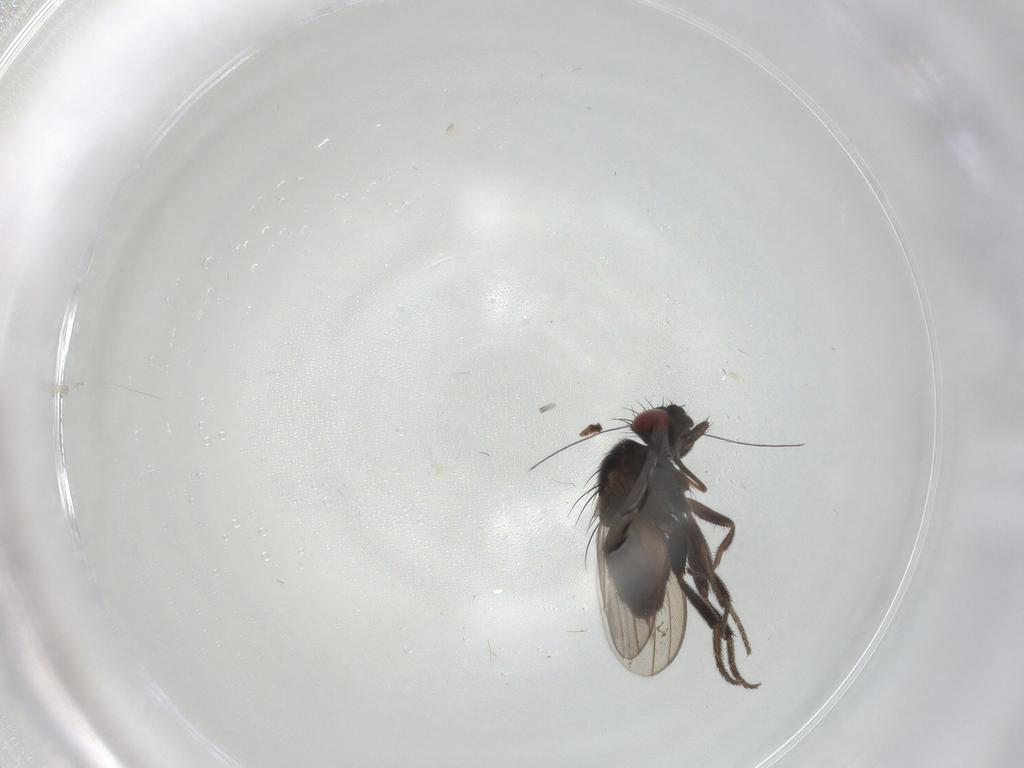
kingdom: Animalia
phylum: Arthropoda
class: Insecta
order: Diptera
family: Milichiidae
